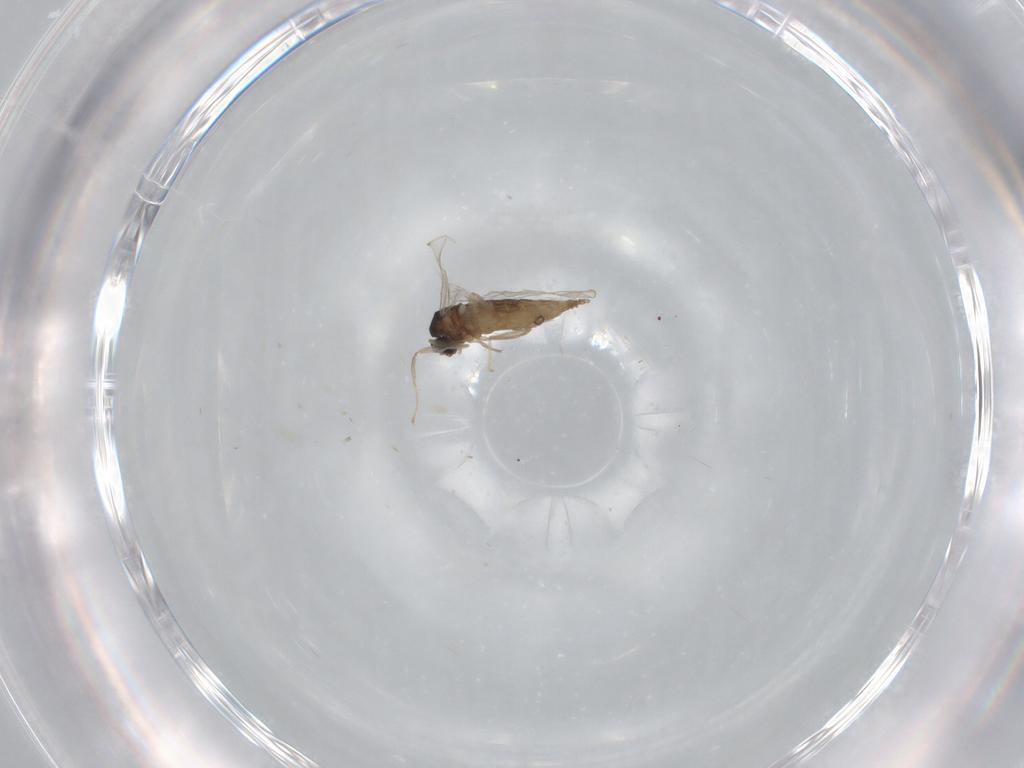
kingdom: Animalia
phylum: Arthropoda
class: Insecta
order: Diptera
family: Cecidomyiidae
